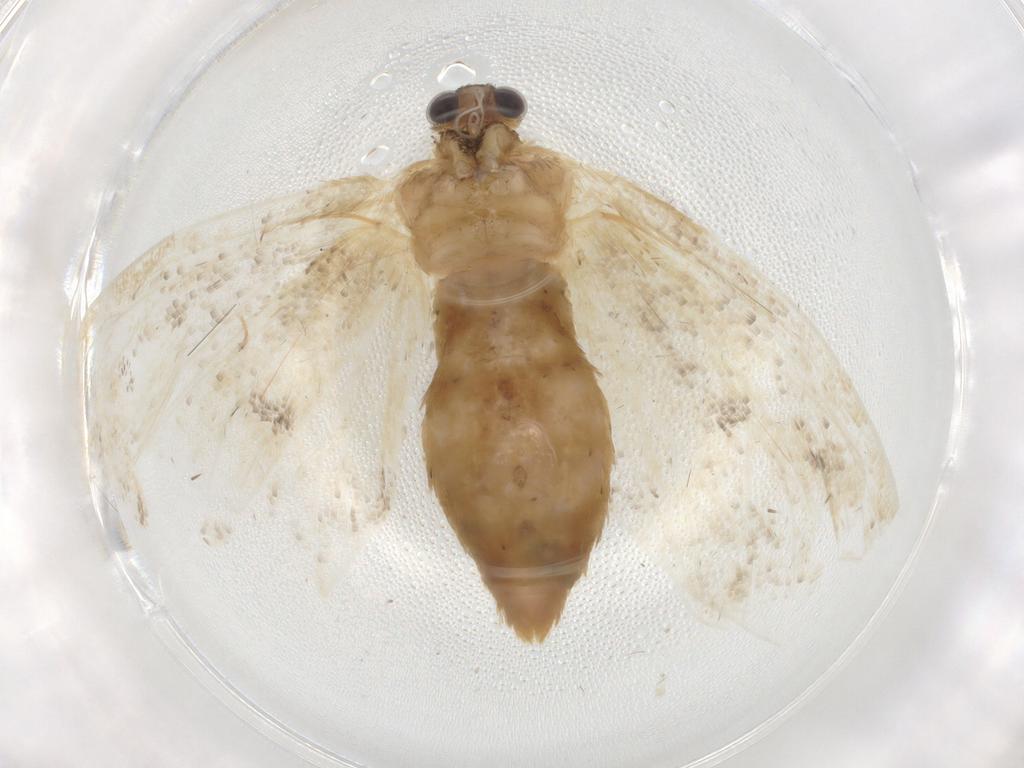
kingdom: Animalia
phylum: Arthropoda
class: Insecta
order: Lepidoptera
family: Geometridae
